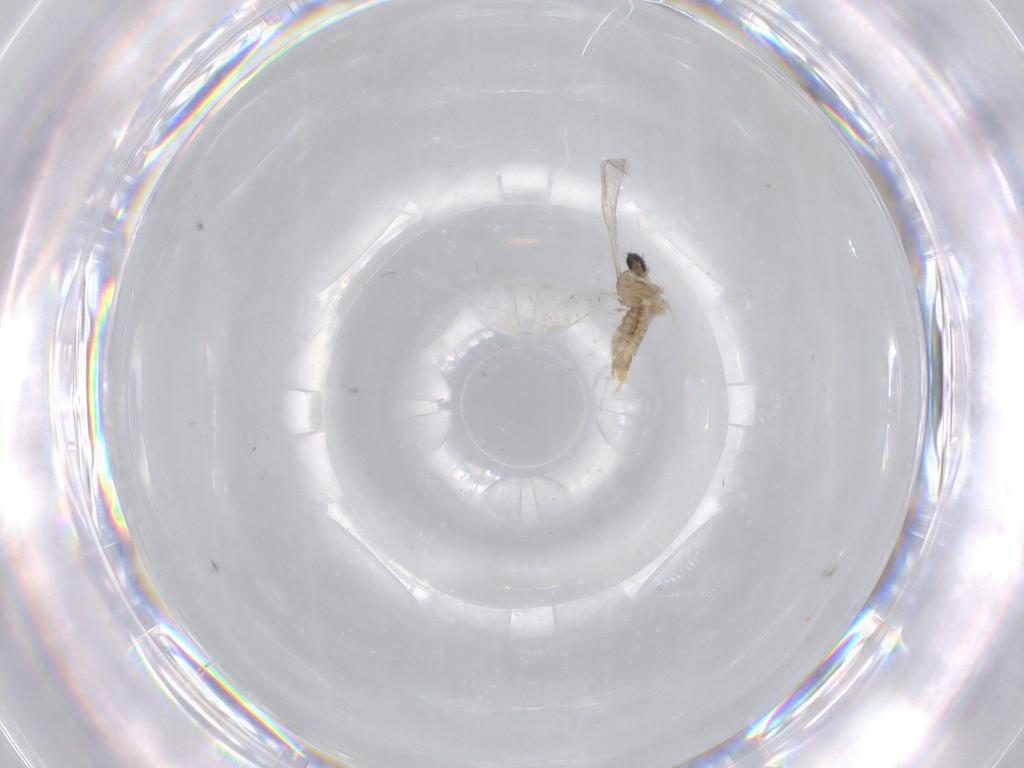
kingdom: Animalia
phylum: Arthropoda
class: Insecta
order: Diptera
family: Cecidomyiidae
